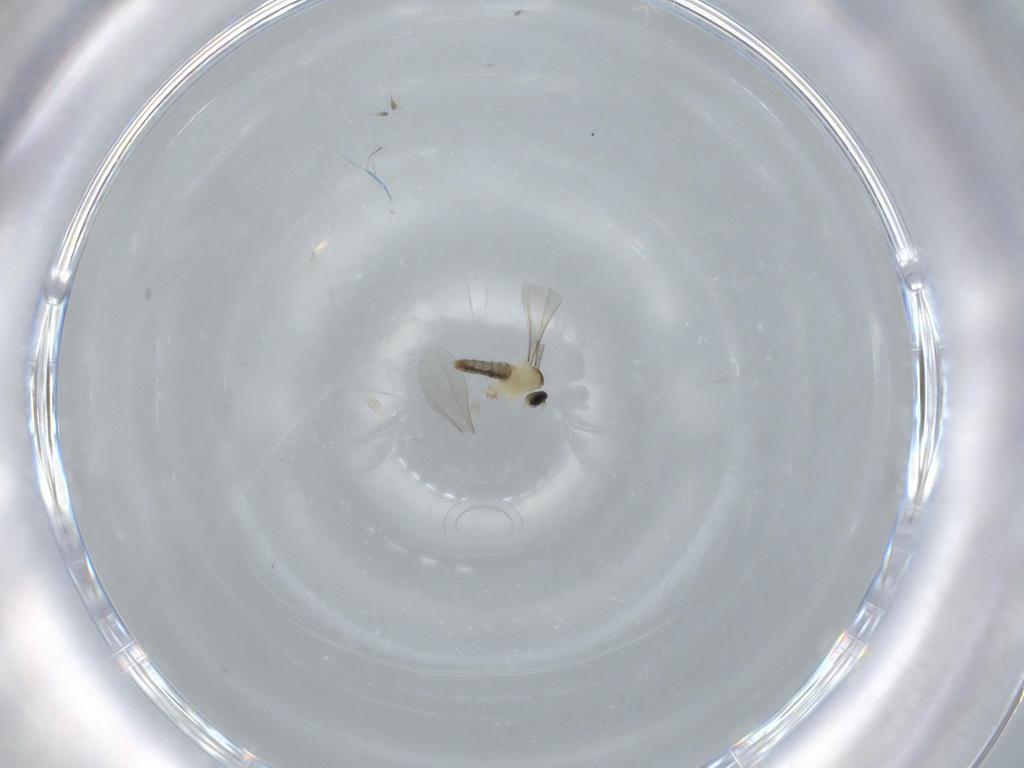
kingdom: Animalia
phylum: Arthropoda
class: Insecta
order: Diptera
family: Cecidomyiidae
